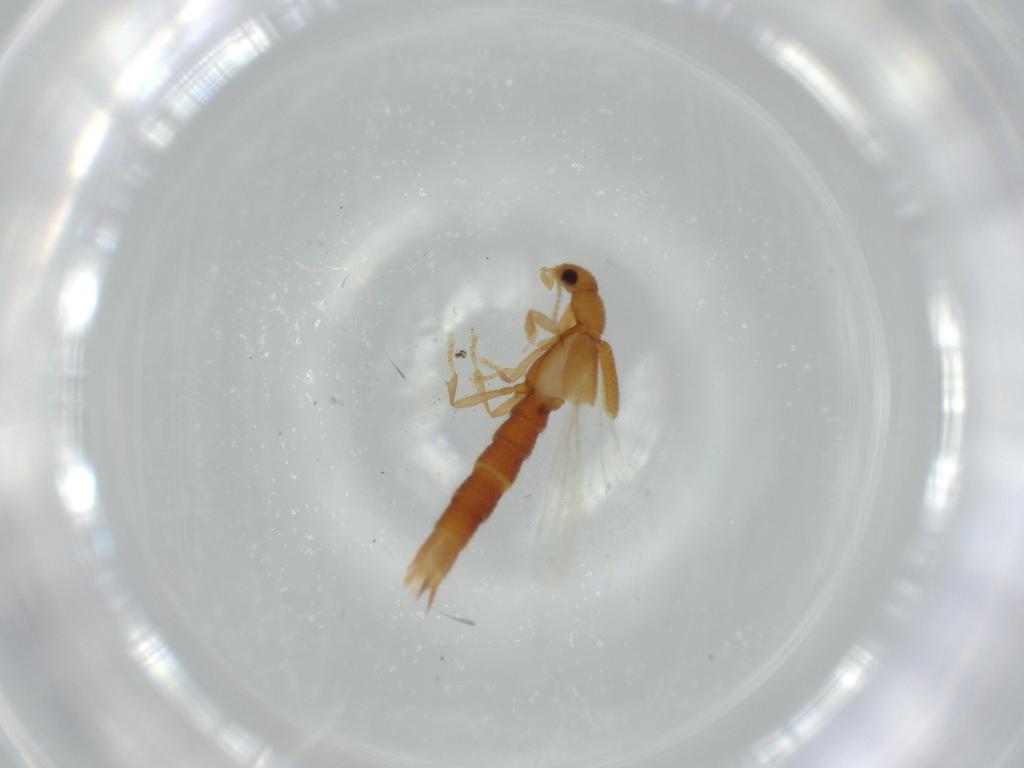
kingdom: Animalia
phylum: Arthropoda
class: Insecta
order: Coleoptera
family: Staphylinidae
